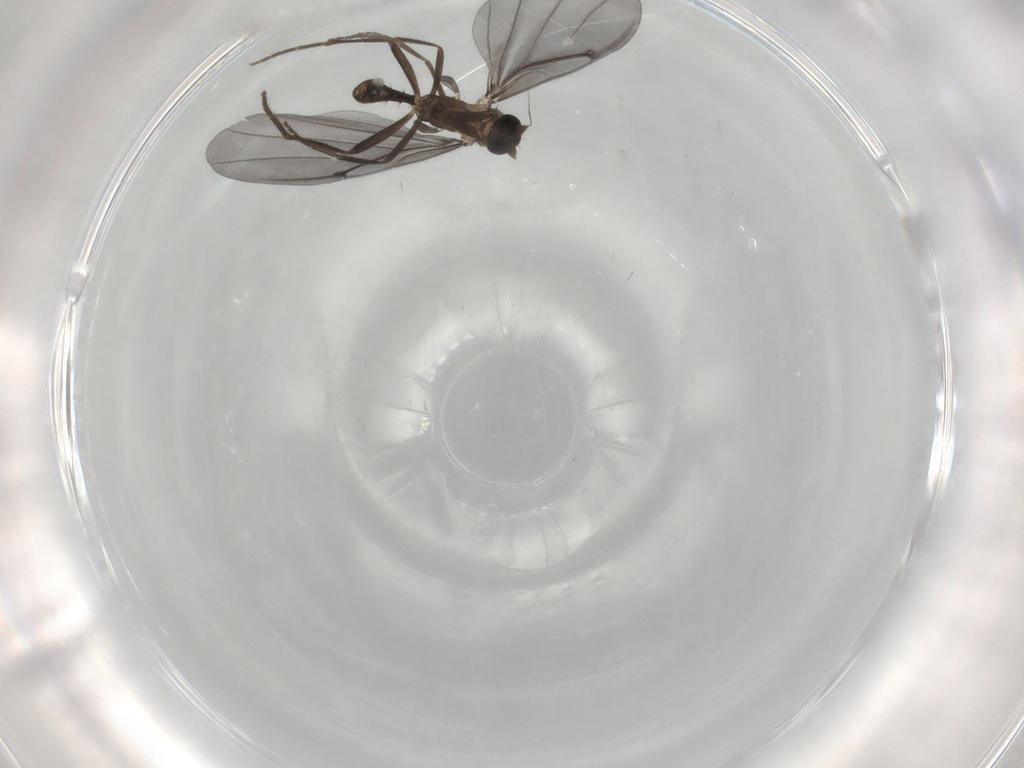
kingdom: Animalia
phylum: Arthropoda
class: Insecta
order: Diptera
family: Phoridae
